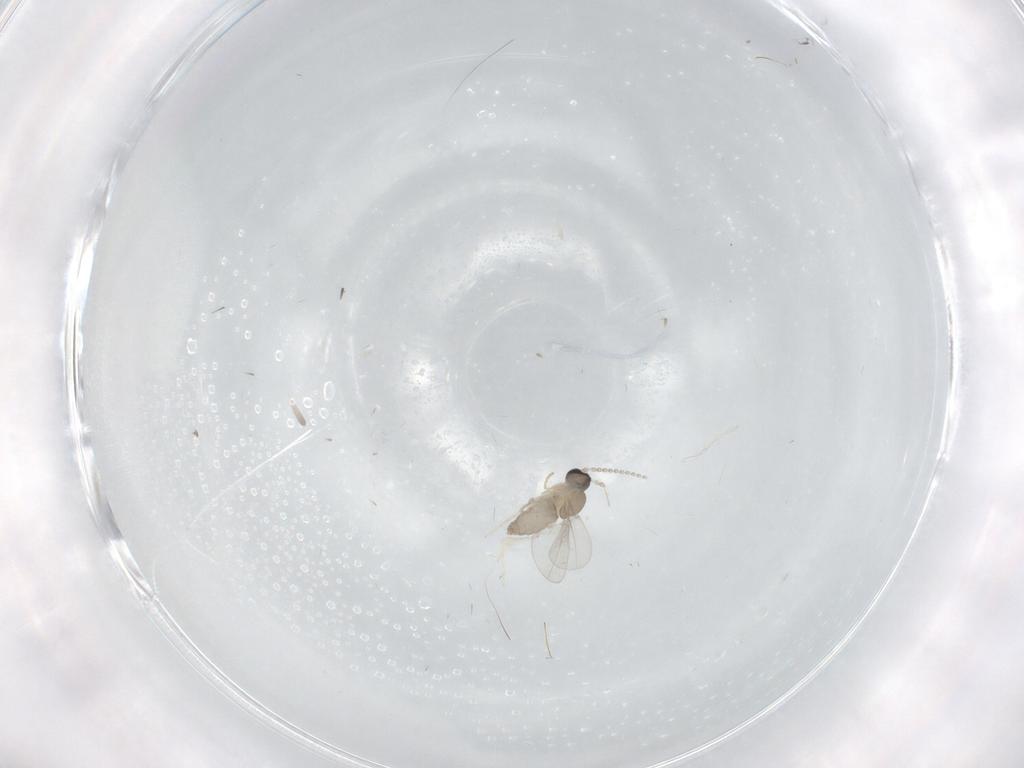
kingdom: Animalia
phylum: Arthropoda
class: Insecta
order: Diptera
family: Cecidomyiidae
